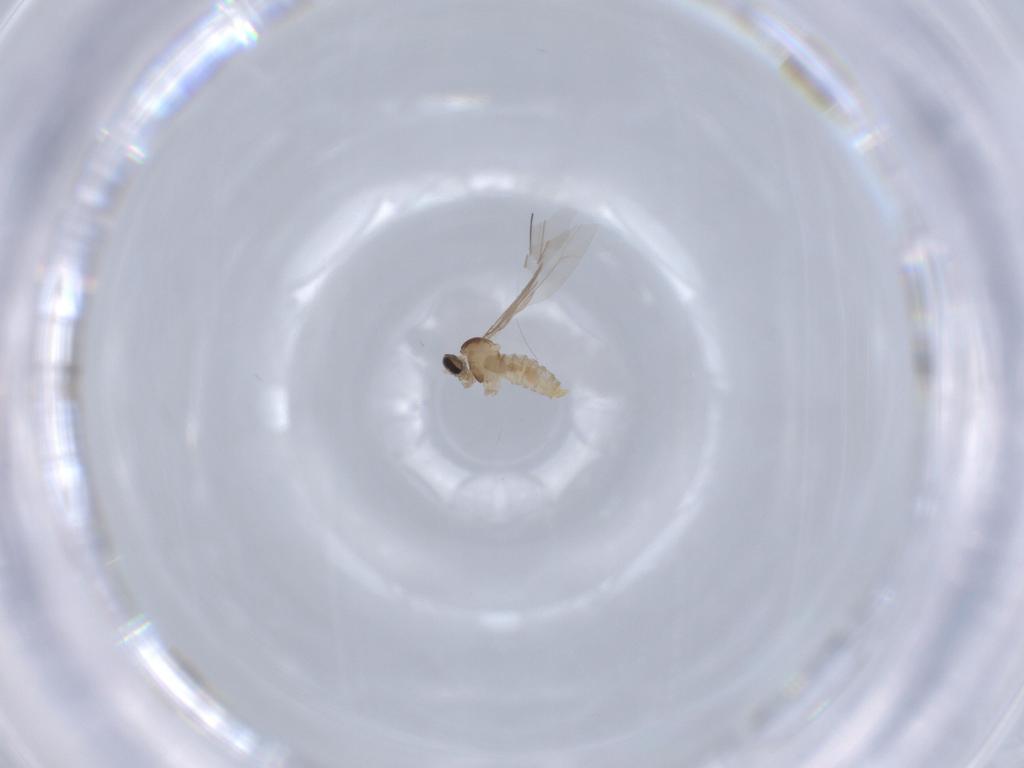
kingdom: Animalia
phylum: Arthropoda
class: Insecta
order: Diptera
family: Cecidomyiidae
